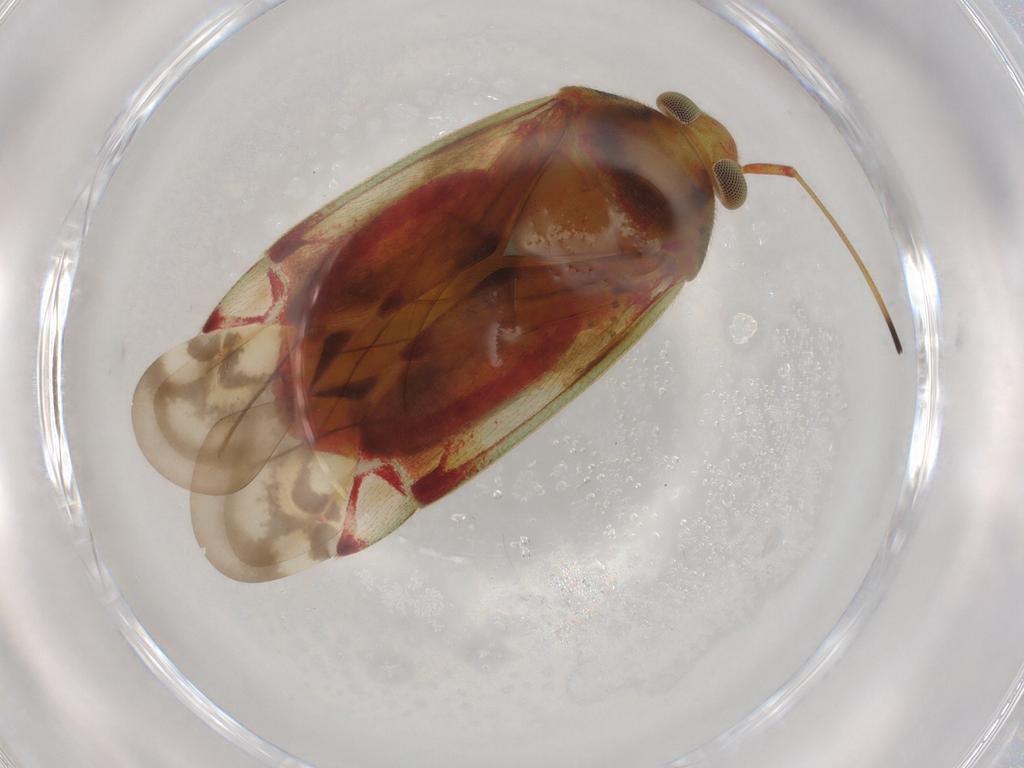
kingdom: Animalia
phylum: Arthropoda
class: Insecta
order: Hemiptera
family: Miridae
